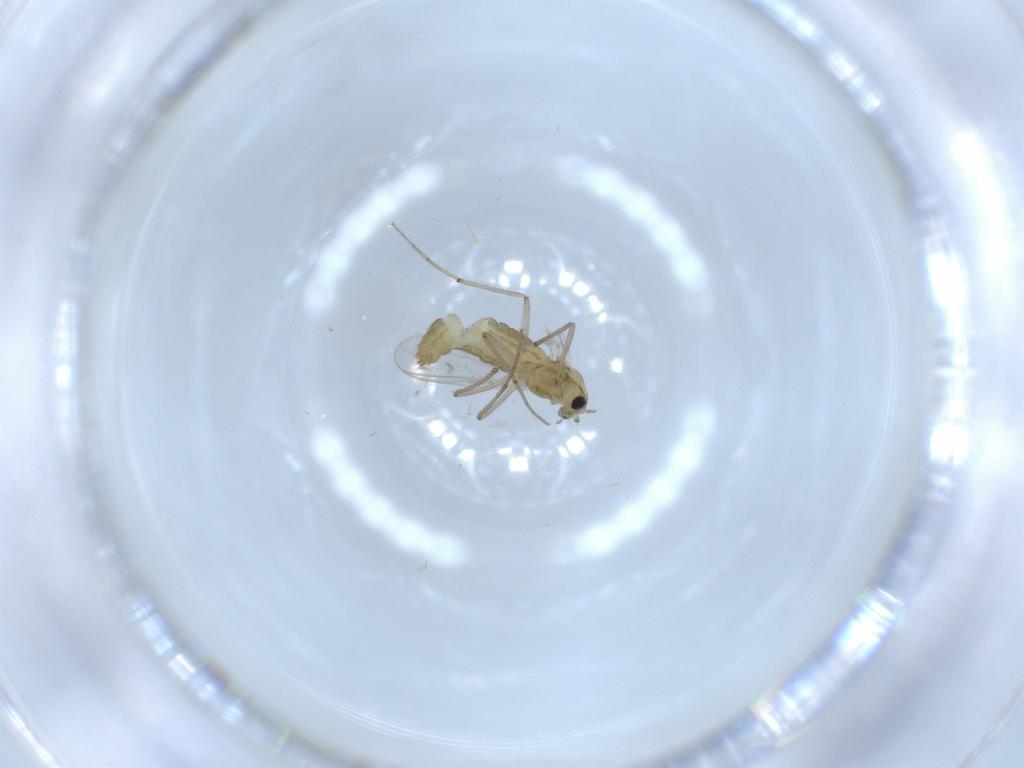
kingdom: Animalia
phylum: Arthropoda
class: Insecta
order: Diptera
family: Chironomidae
